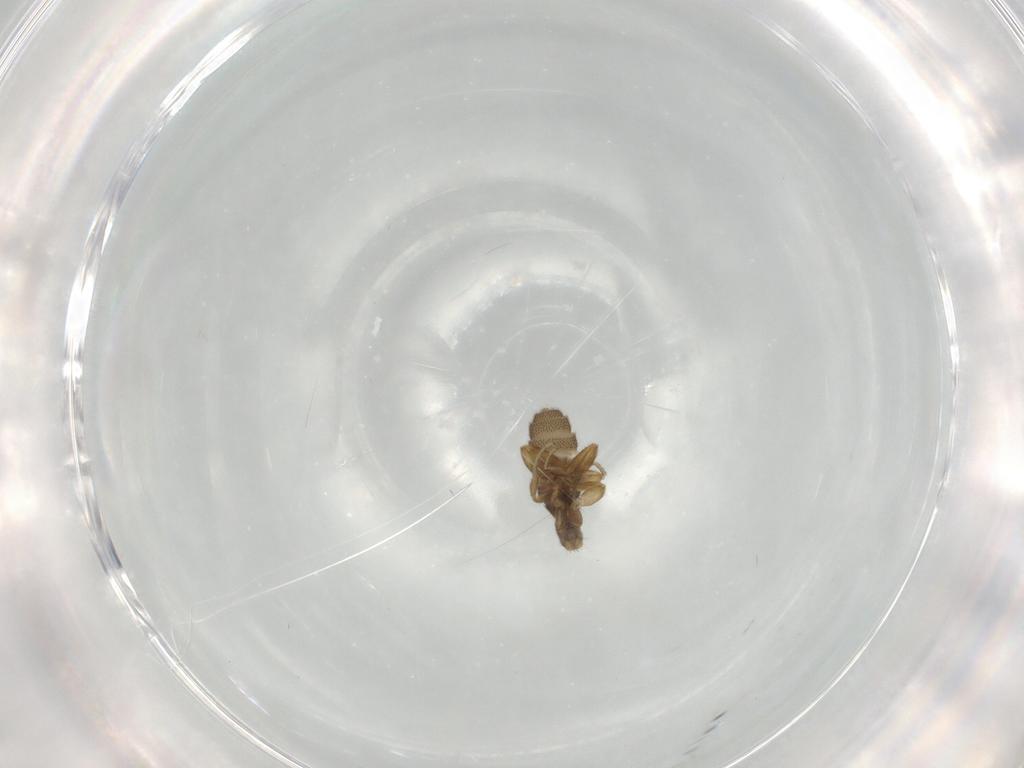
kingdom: Animalia
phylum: Arthropoda
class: Insecta
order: Diptera
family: Phoridae
